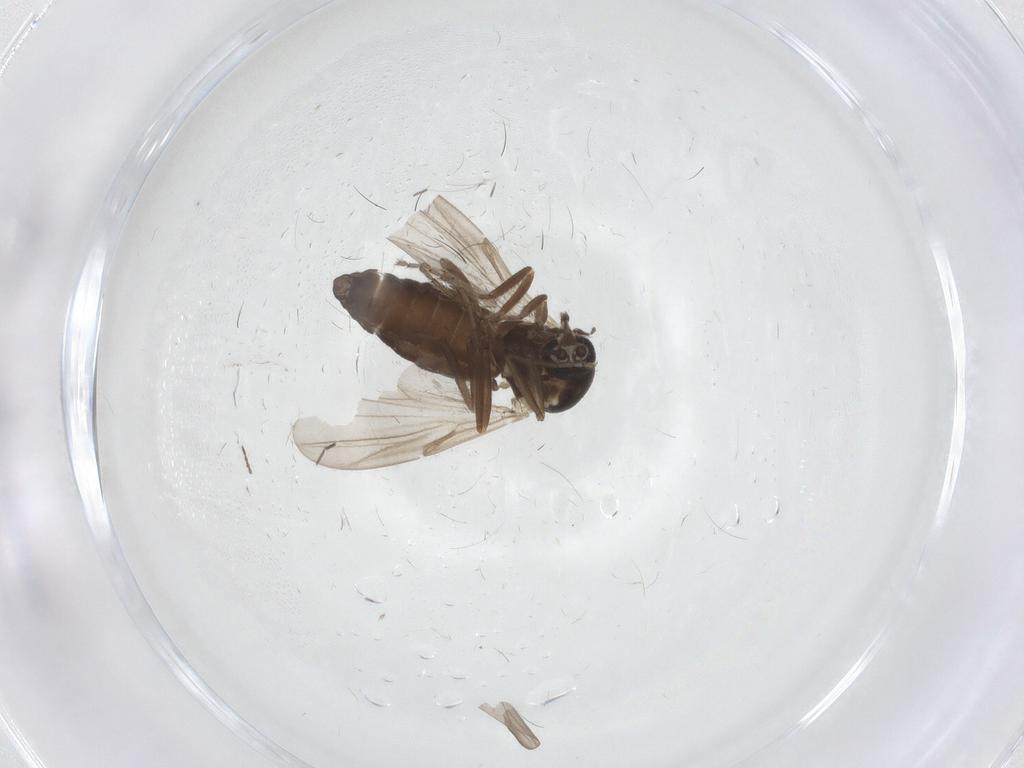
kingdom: Animalia
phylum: Arthropoda
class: Insecta
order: Diptera
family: Ceratopogonidae
